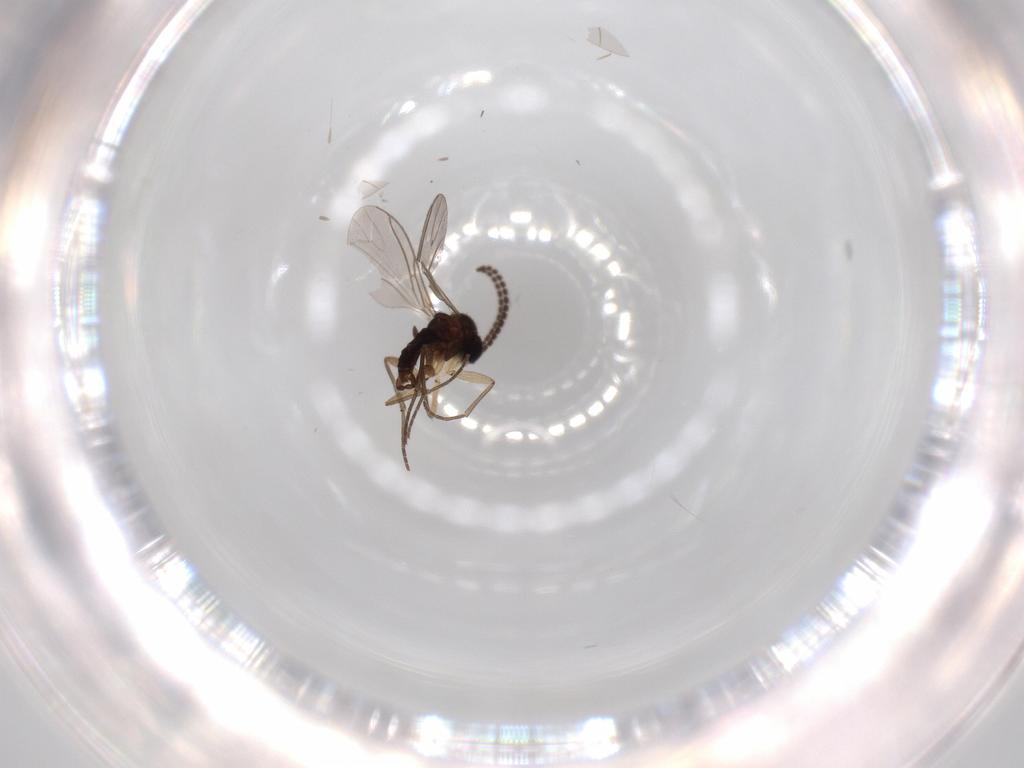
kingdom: Animalia
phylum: Arthropoda
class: Insecta
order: Diptera
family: Sciaridae
